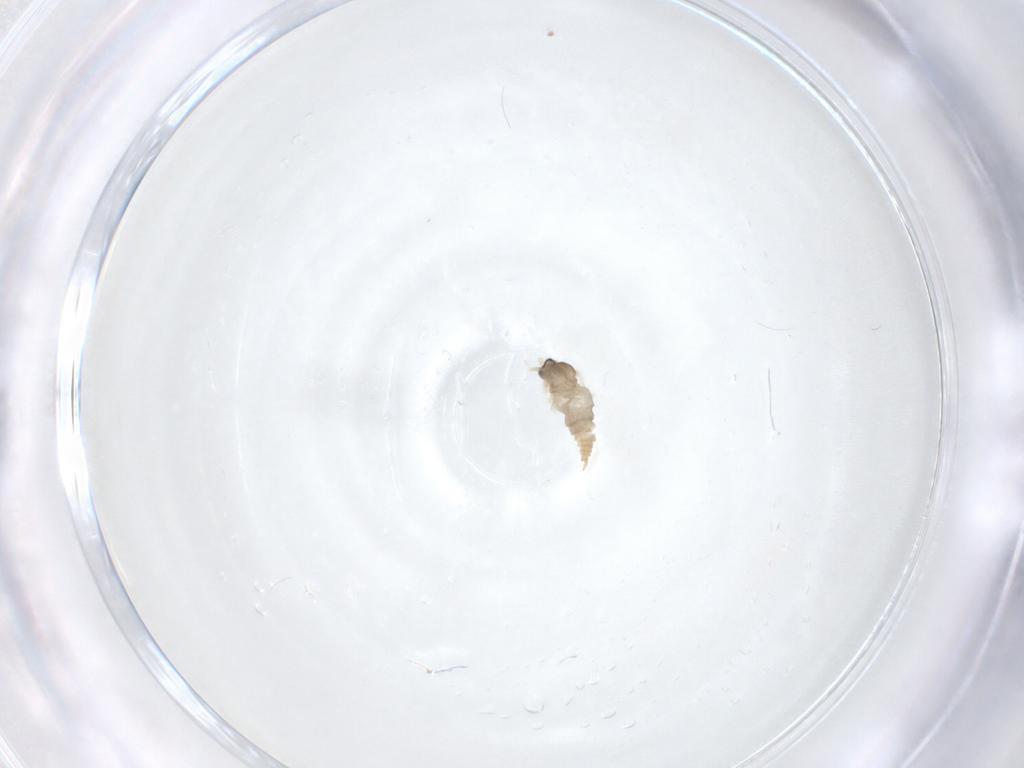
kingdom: Animalia
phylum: Arthropoda
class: Insecta
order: Diptera
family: Cecidomyiidae
